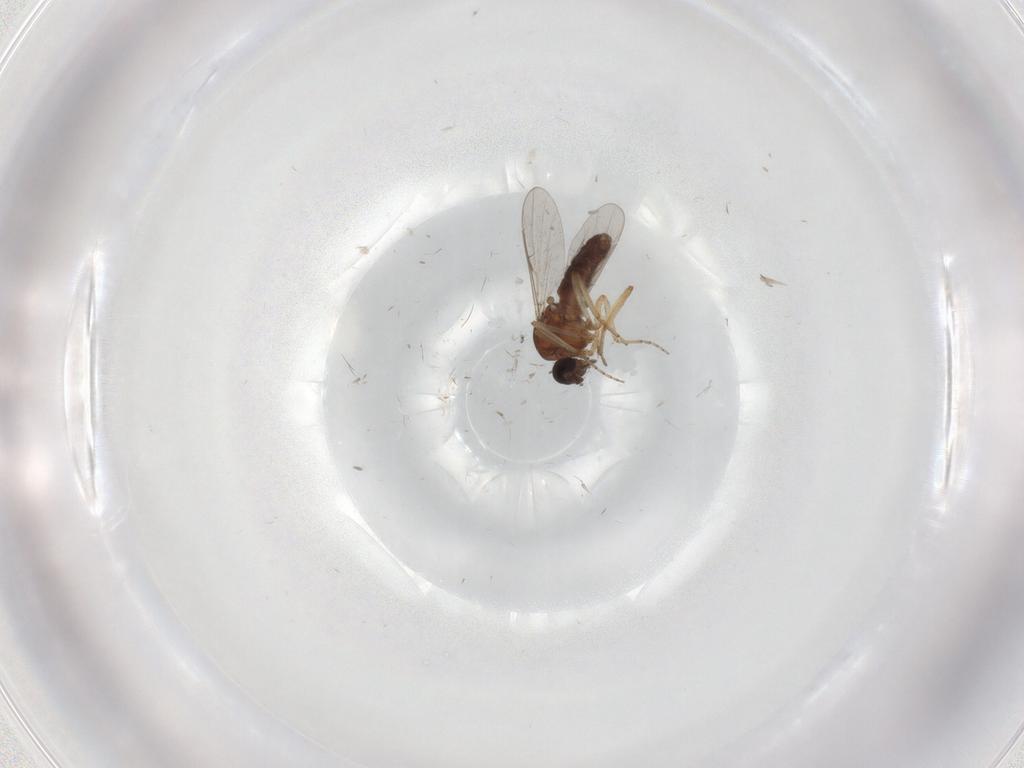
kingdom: Animalia
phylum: Arthropoda
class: Insecta
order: Diptera
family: Ceratopogonidae
